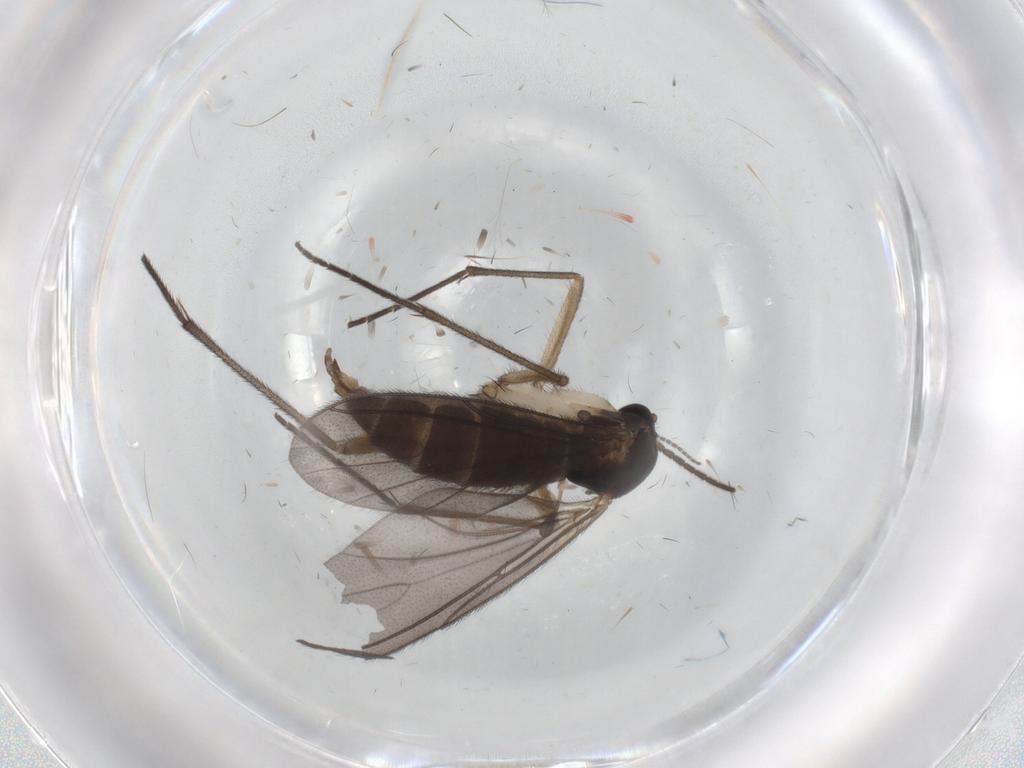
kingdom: Animalia
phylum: Arthropoda
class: Insecta
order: Diptera
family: Sciaridae
